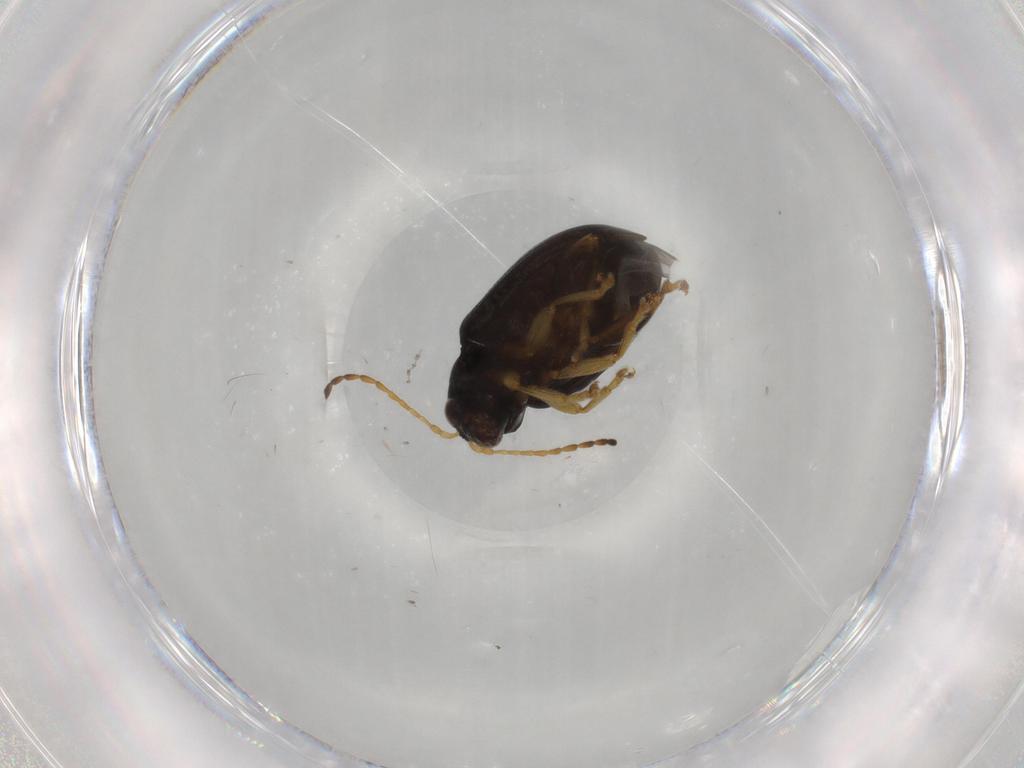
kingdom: Animalia
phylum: Arthropoda
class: Insecta
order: Coleoptera
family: Chrysomelidae
